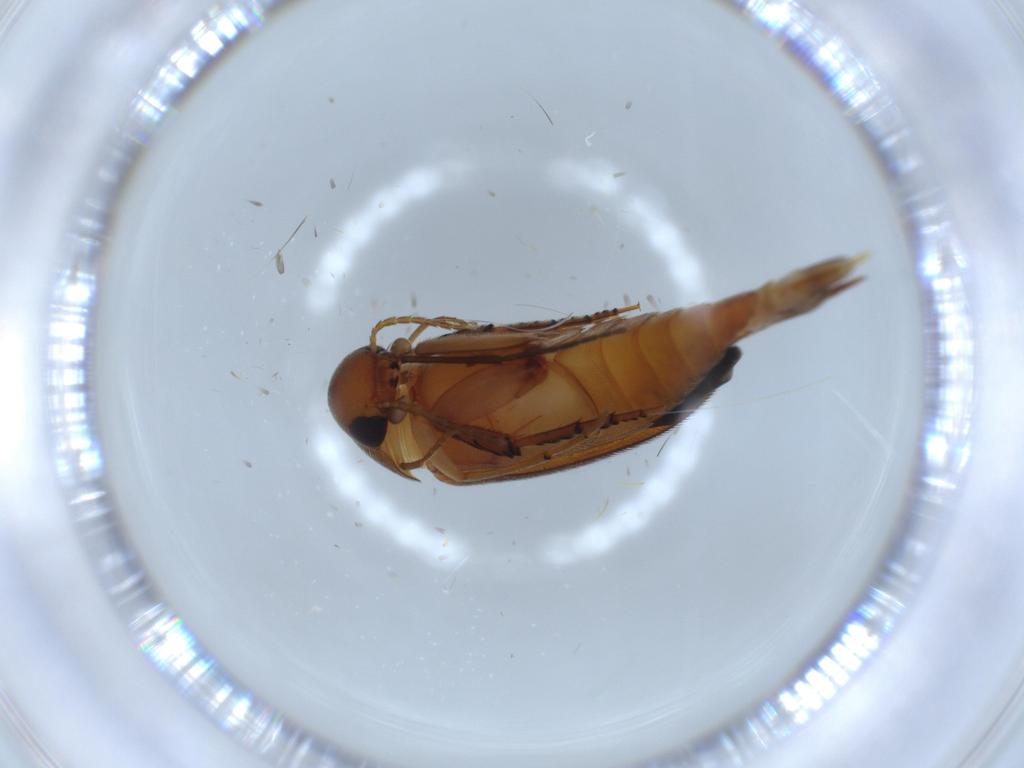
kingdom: Animalia
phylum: Arthropoda
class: Insecta
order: Coleoptera
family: Mordellidae
